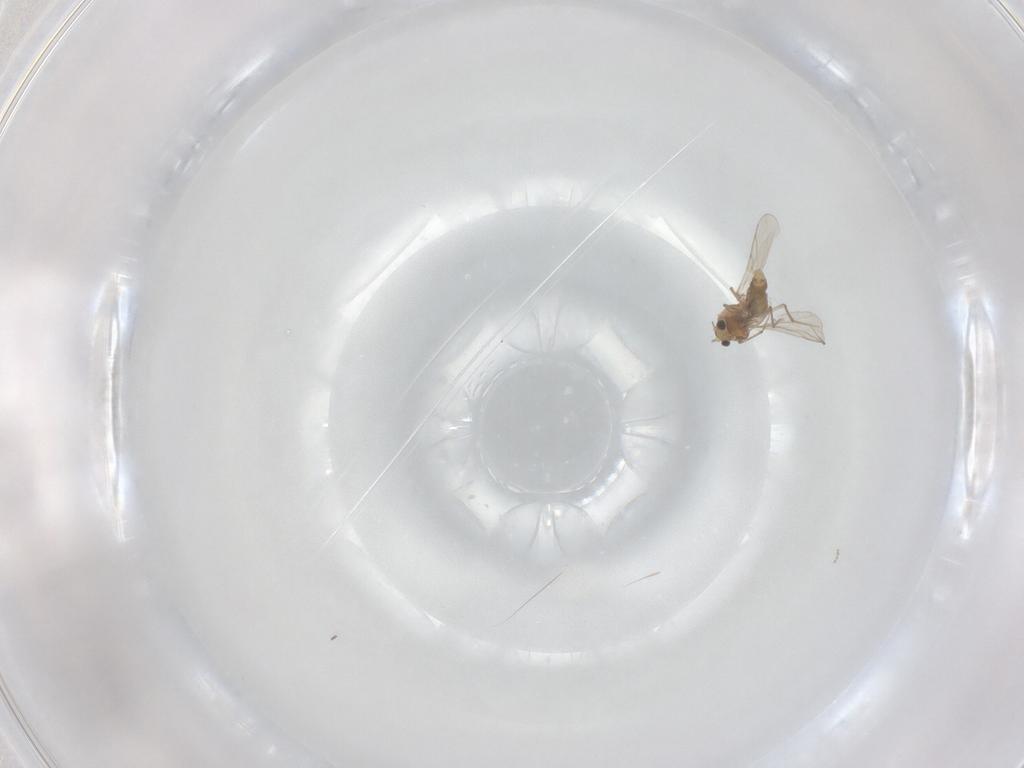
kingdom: Animalia
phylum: Arthropoda
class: Insecta
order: Diptera
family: Chironomidae
